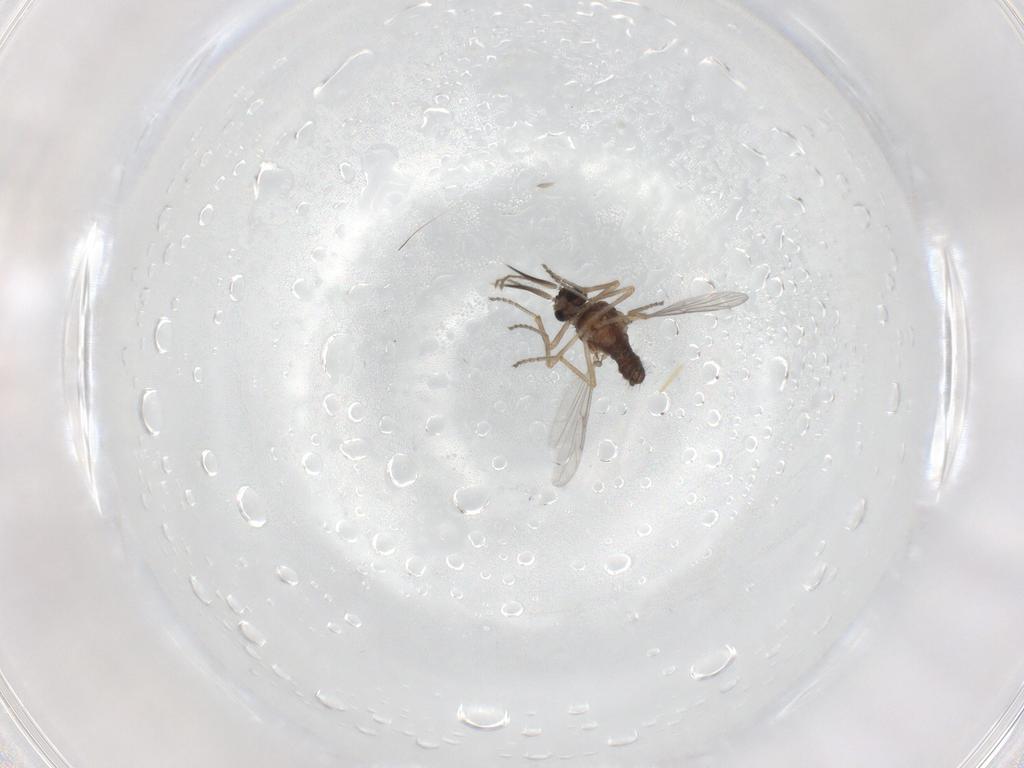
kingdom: Animalia
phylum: Arthropoda
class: Insecta
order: Diptera
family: Ceratopogonidae
